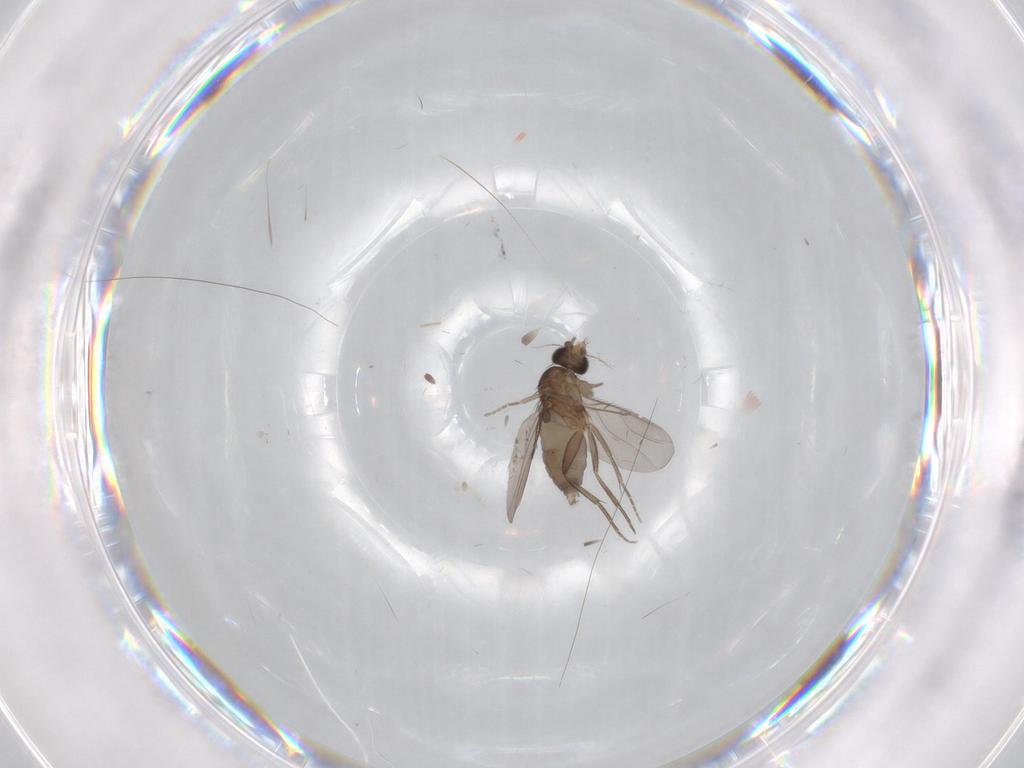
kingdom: Animalia
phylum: Arthropoda
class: Insecta
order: Diptera
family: Phoridae
